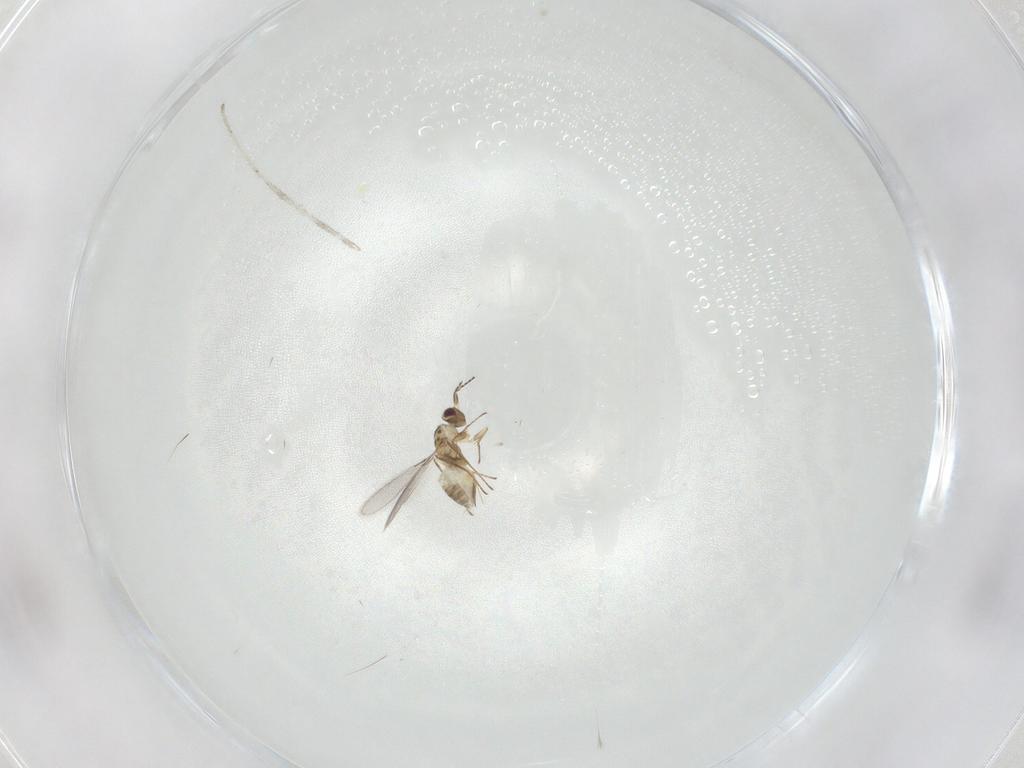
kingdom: Animalia
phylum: Arthropoda
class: Insecta
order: Hymenoptera
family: Mymaridae
